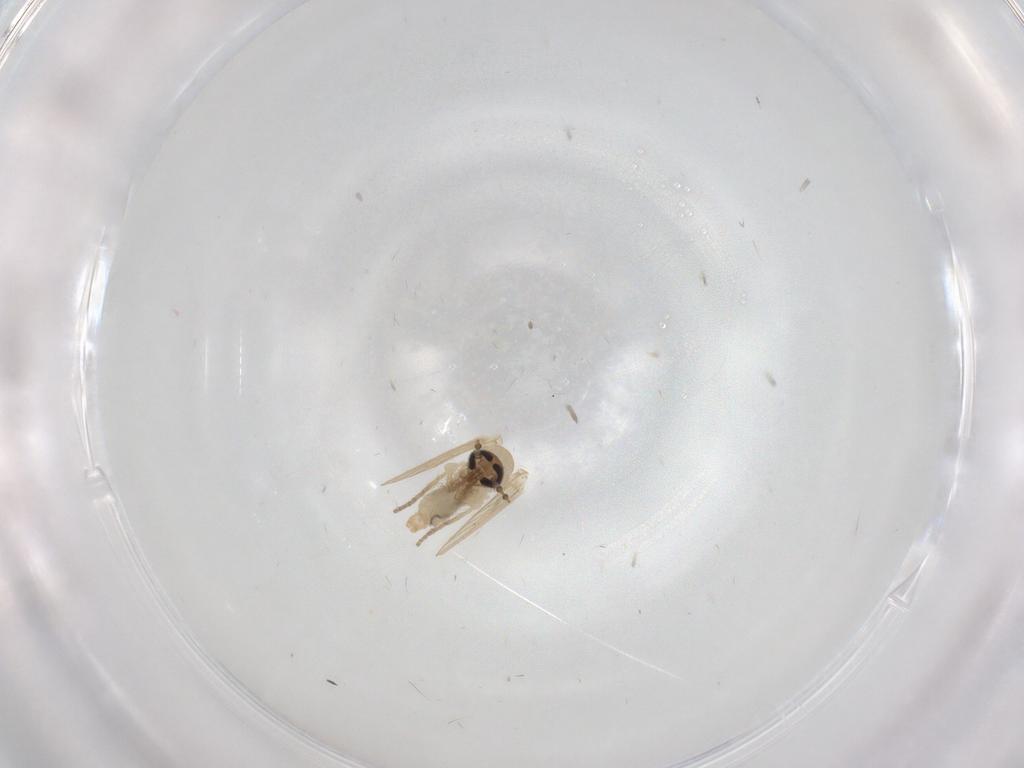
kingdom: Animalia
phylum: Arthropoda
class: Insecta
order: Diptera
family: Psychodidae
